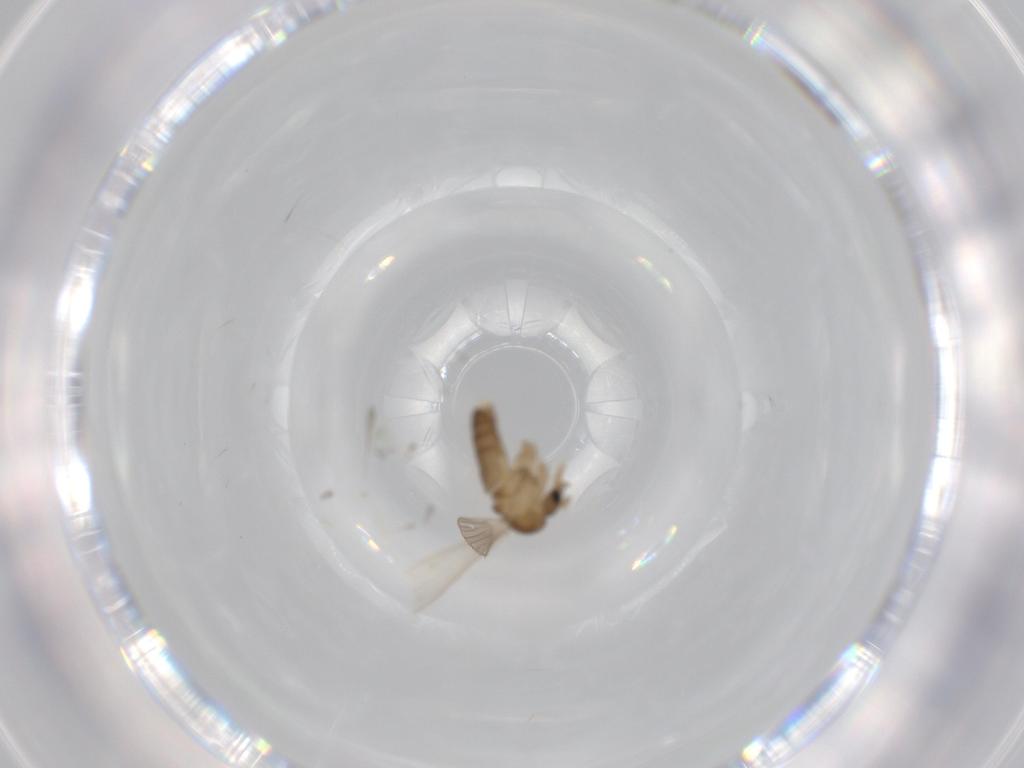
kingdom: Animalia
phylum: Arthropoda
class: Insecta
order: Diptera
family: Psychodidae
